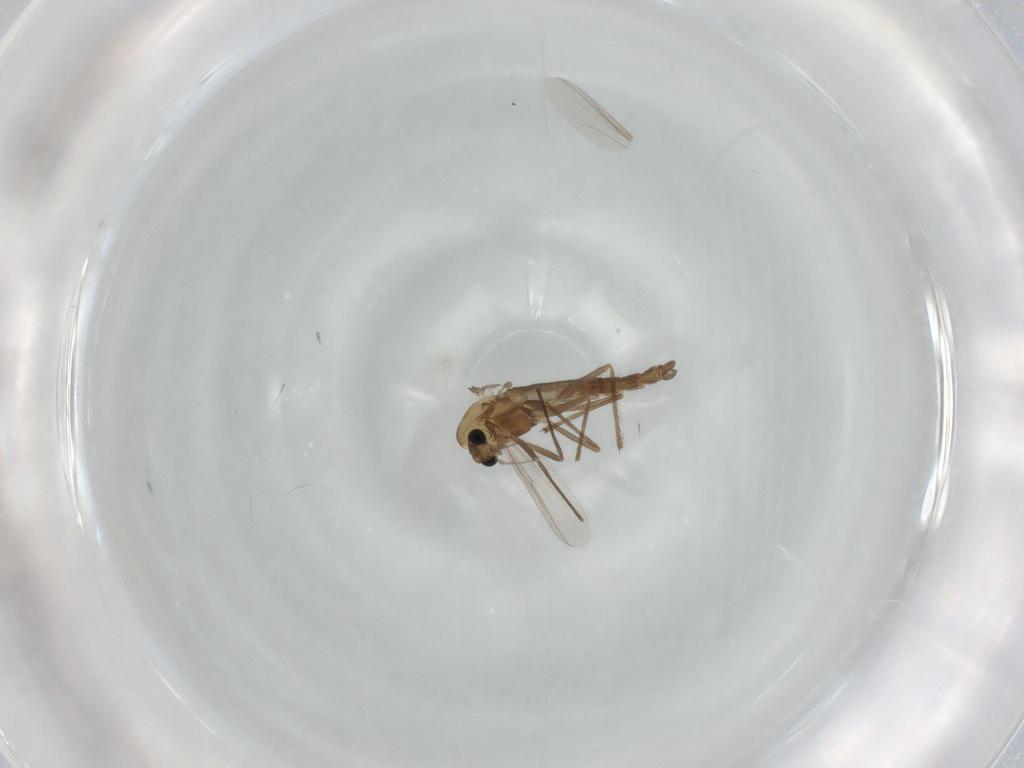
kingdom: Animalia
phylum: Arthropoda
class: Insecta
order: Diptera
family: Chironomidae
